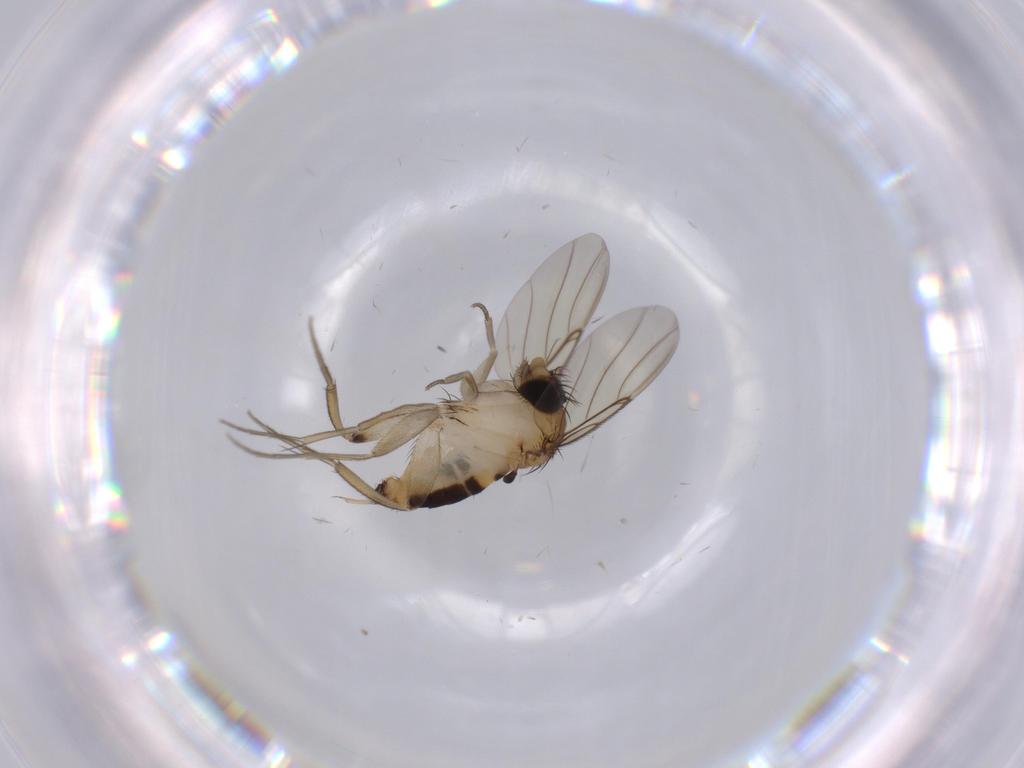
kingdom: Animalia
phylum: Arthropoda
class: Insecta
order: Diptera
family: Cecidomyiidae
